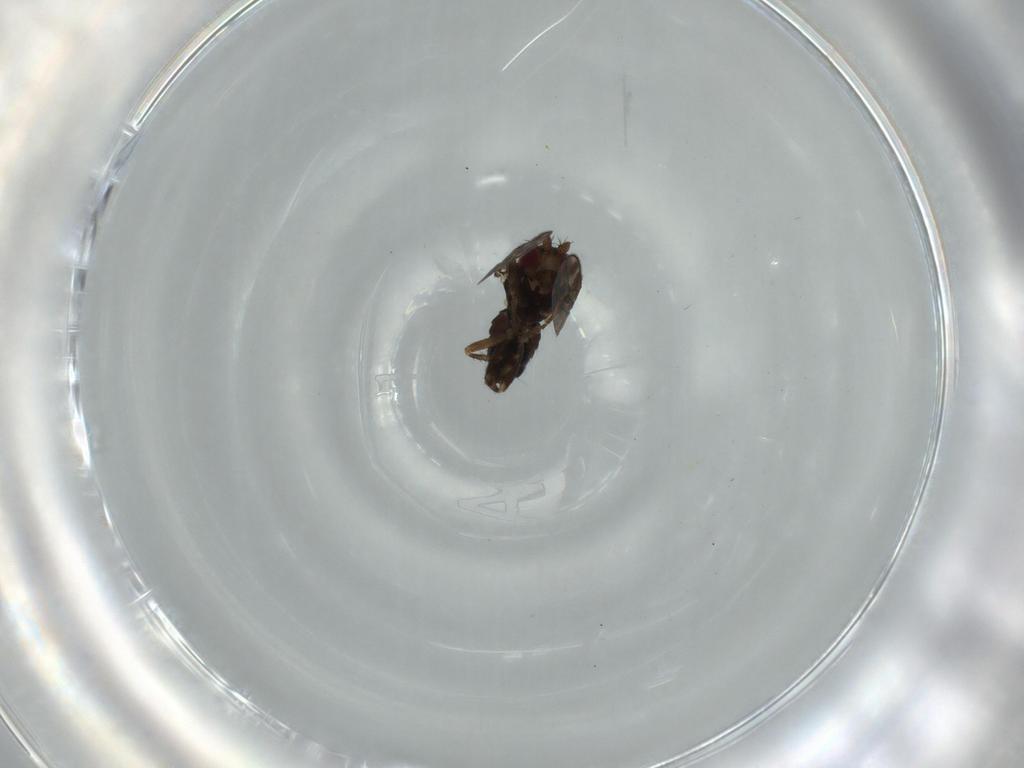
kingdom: Animalia
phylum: Arthropoda
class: Insecta
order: Diptera
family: Sphaeroceridae
